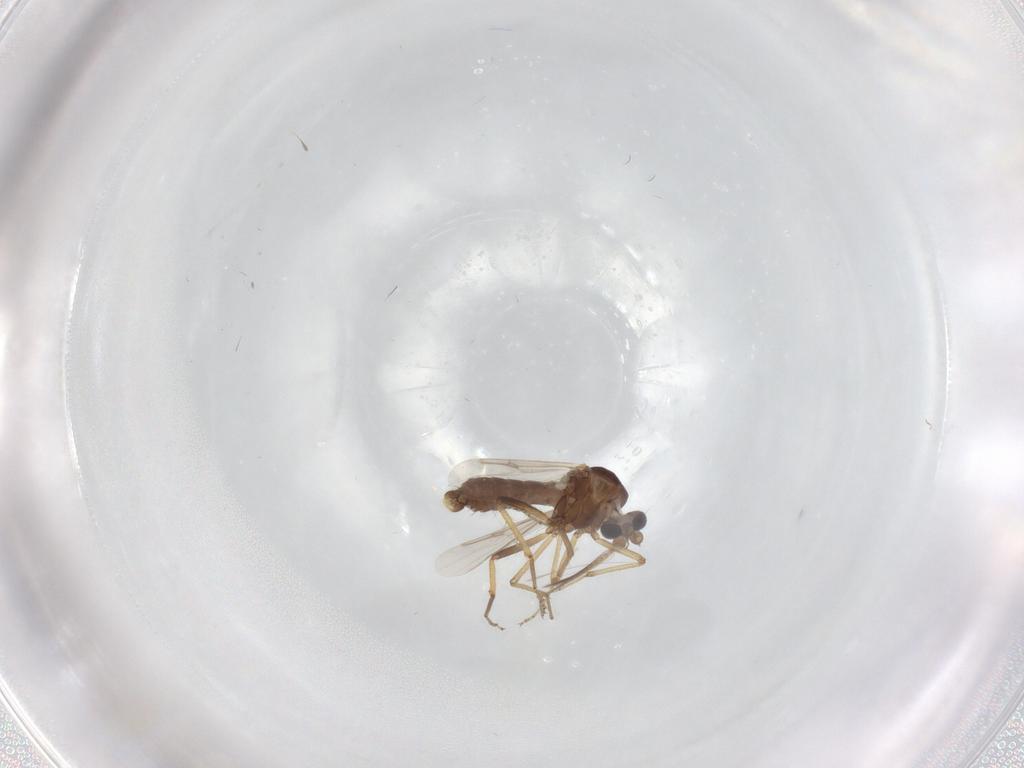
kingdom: Animalia
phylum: Arthropoda
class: Insecta
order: Diptera
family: Ceratopogonidae
